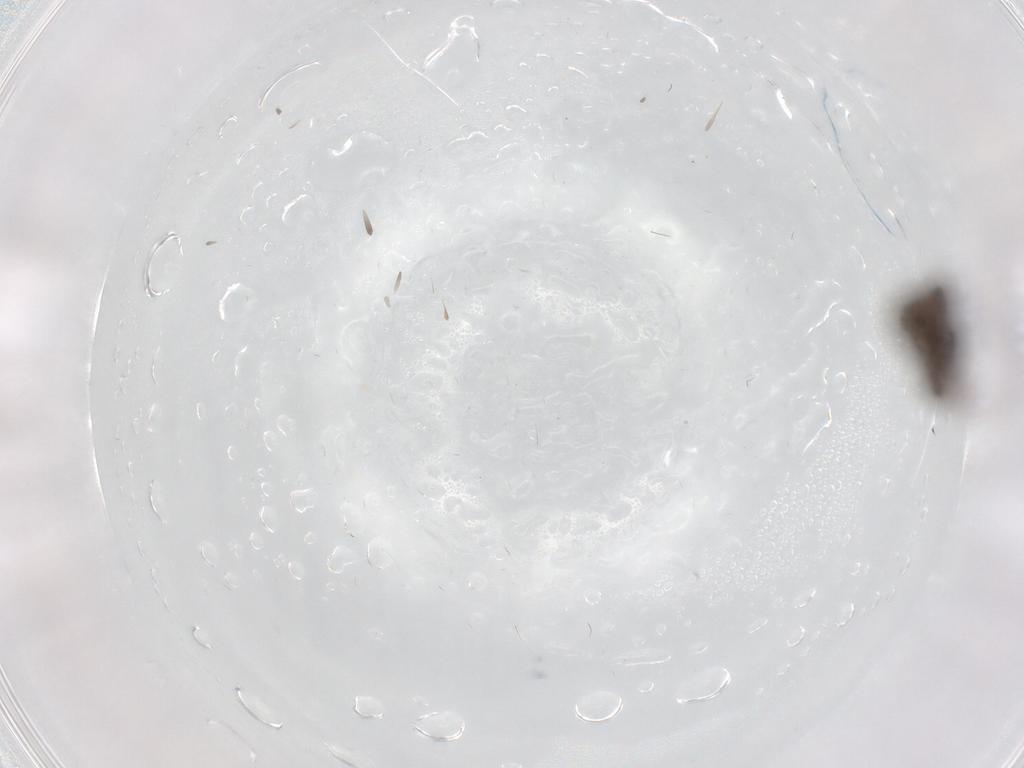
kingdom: Animalia
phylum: Arthropoda
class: Insecta
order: Diptera
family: Psychodidae
